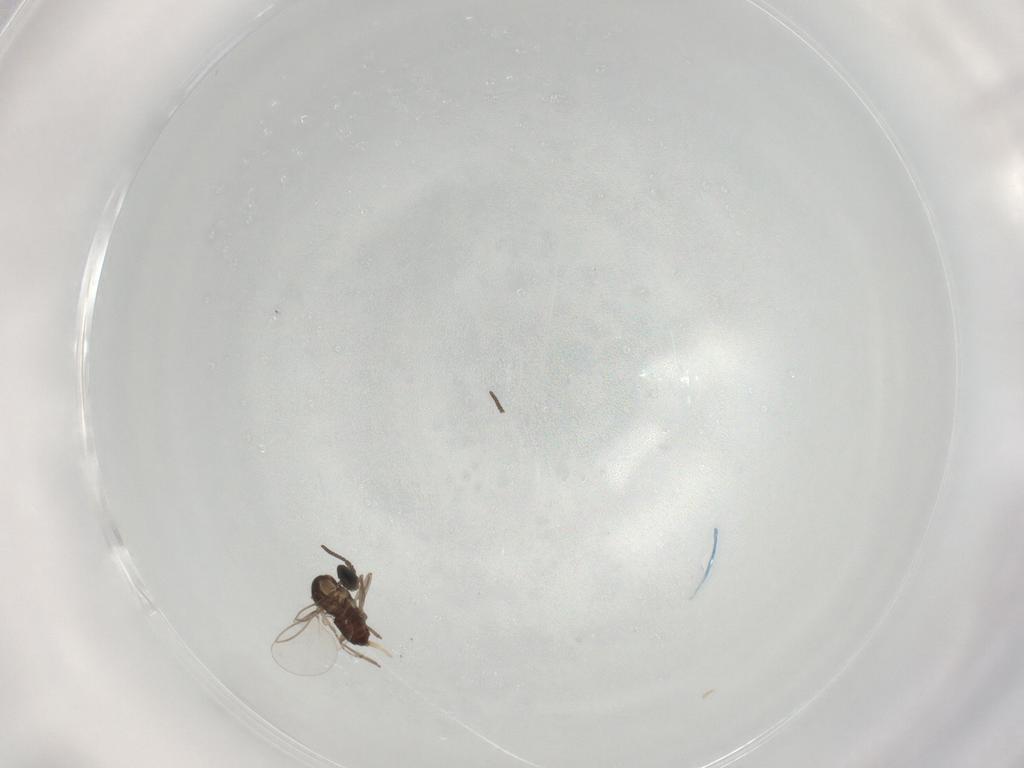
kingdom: Animalia
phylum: Arthropoda
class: Insecta
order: Diptera
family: Cecidomyiidae
